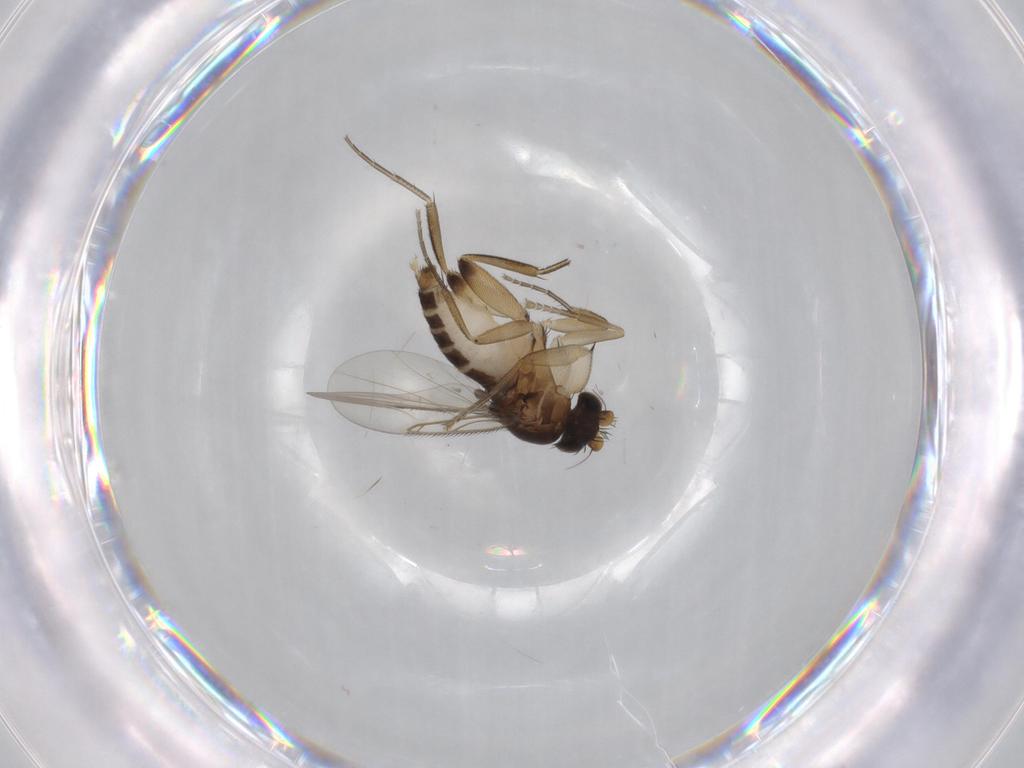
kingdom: Animalia
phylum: Arthropoda
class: Insecta
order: Diptera
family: Phoridae
